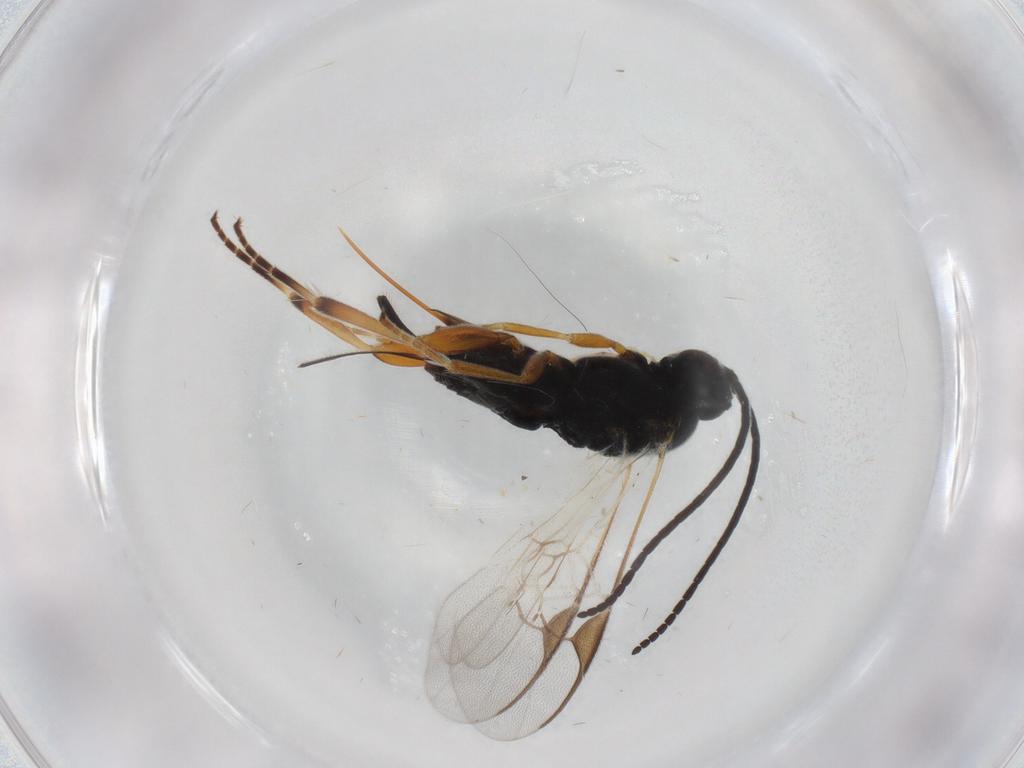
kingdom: Animalia
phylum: Arthropoda
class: Insecta
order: Hymenoptera
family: Braconidae
